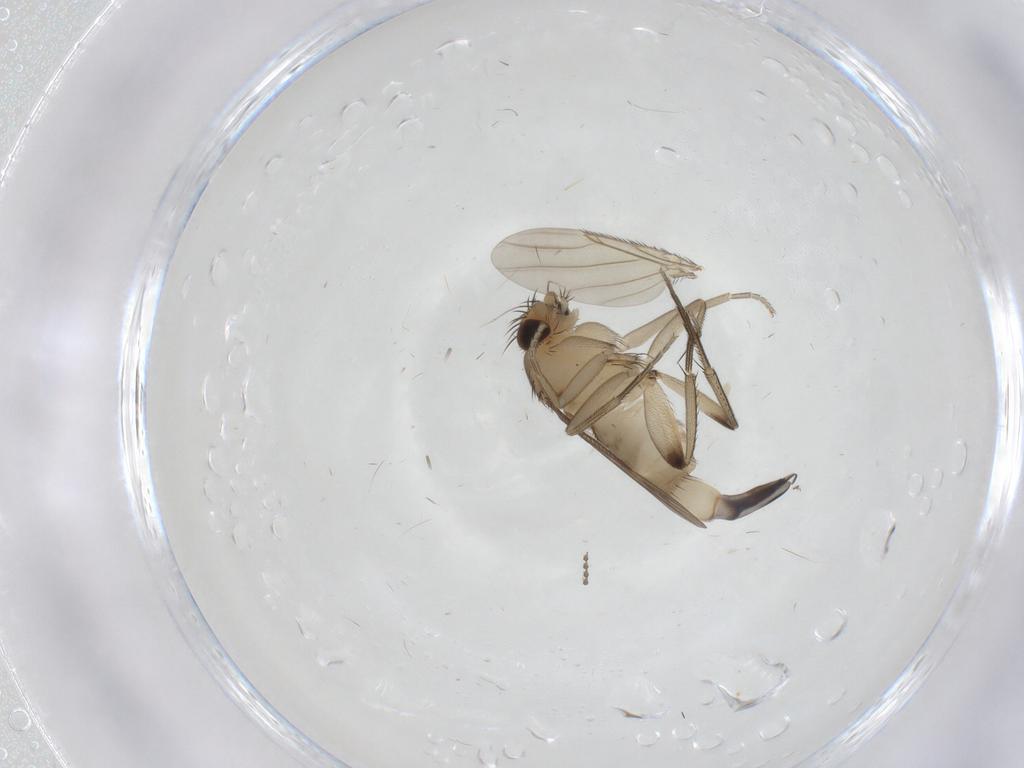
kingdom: Animalia
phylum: Arthropoda
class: Insecta
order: Diptera
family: Phoridae
